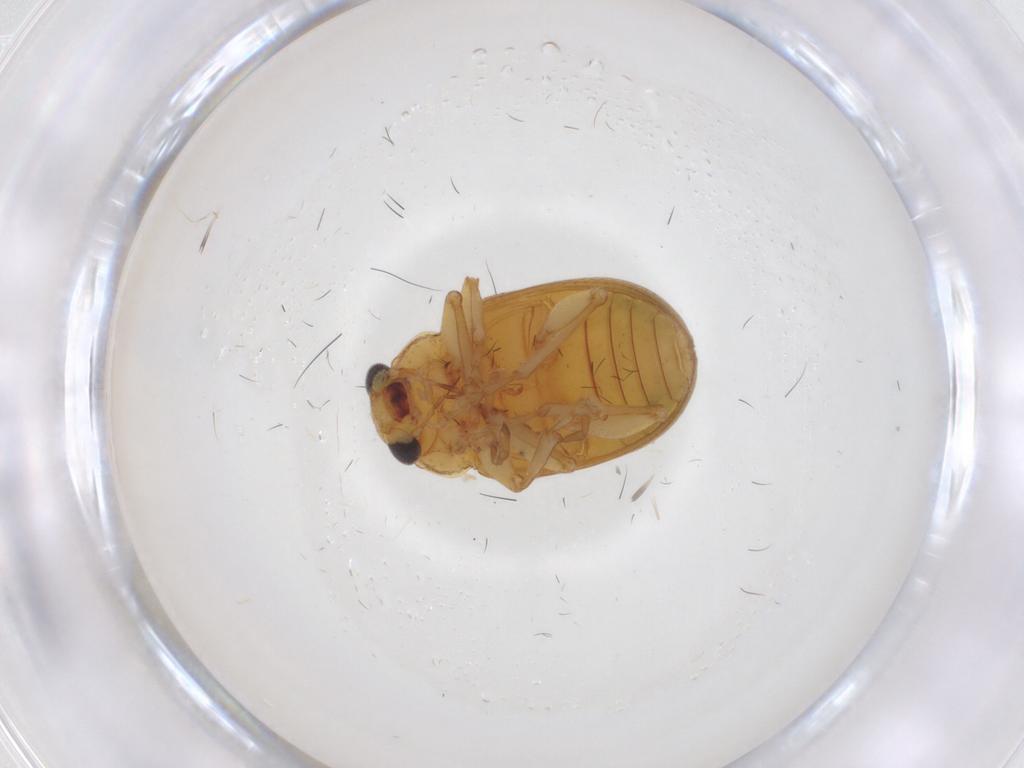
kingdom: Animalia
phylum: Arthropoda
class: Insecta
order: Coleoptera
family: Chrysomelidae
